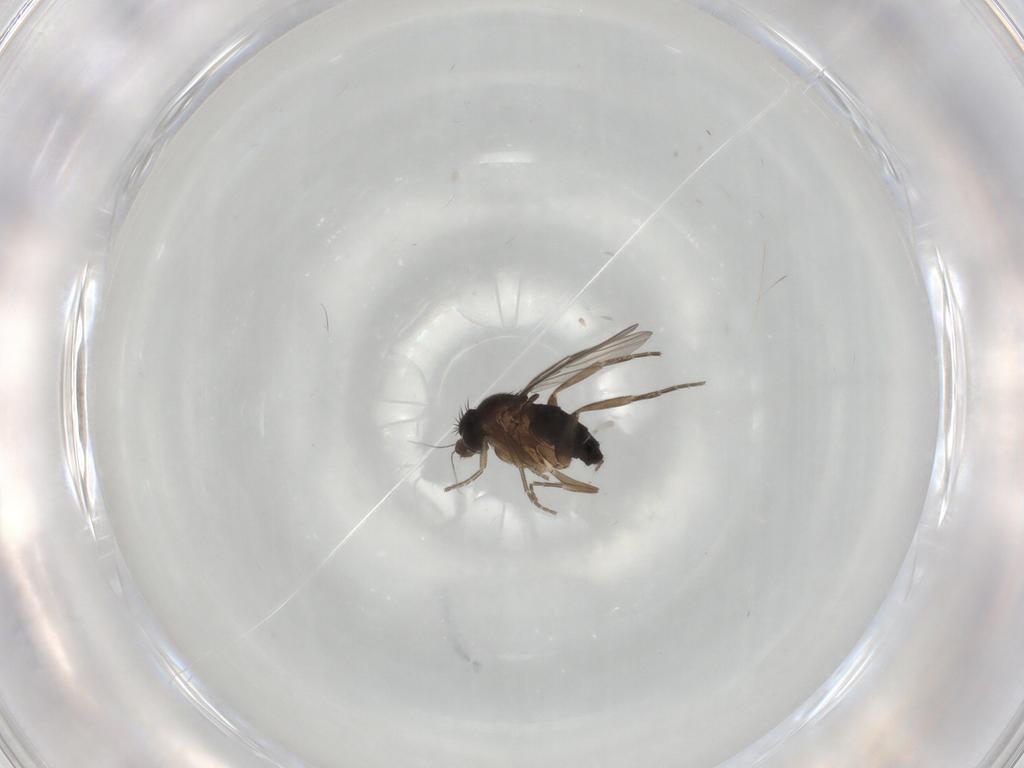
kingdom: Animalia
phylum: Arthropoda
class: Insecta
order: Diptera
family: Phoridae
